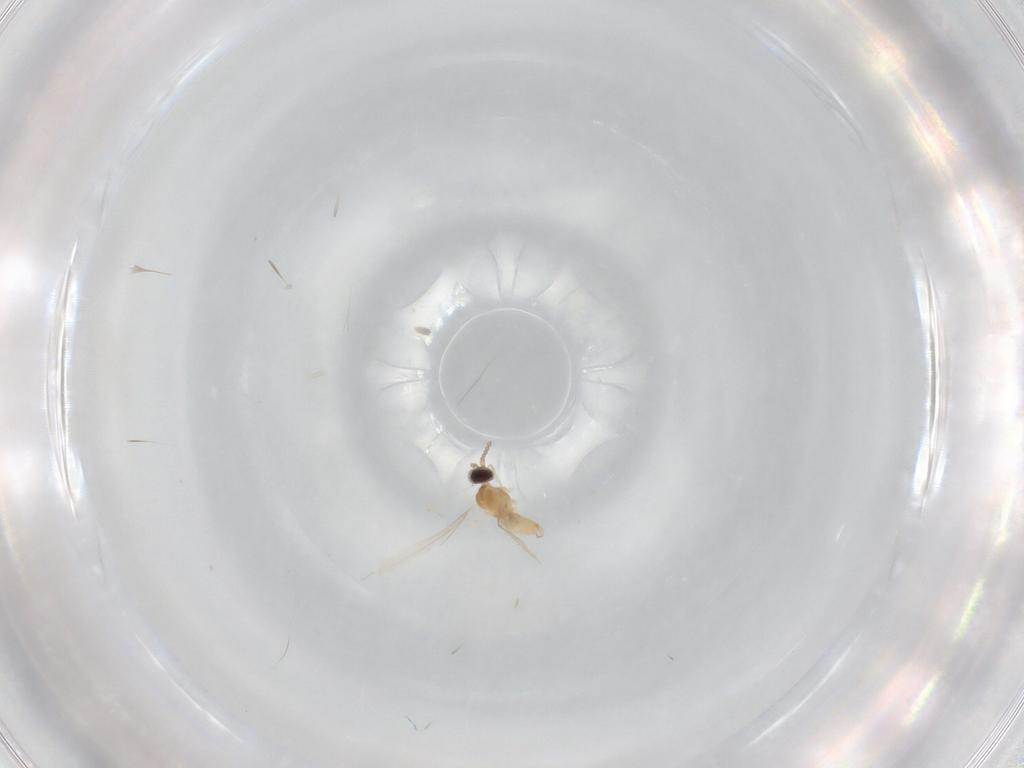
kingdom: Animalia
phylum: Arthropoda
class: Insecta
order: Diptera
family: Cecidomyiidae
